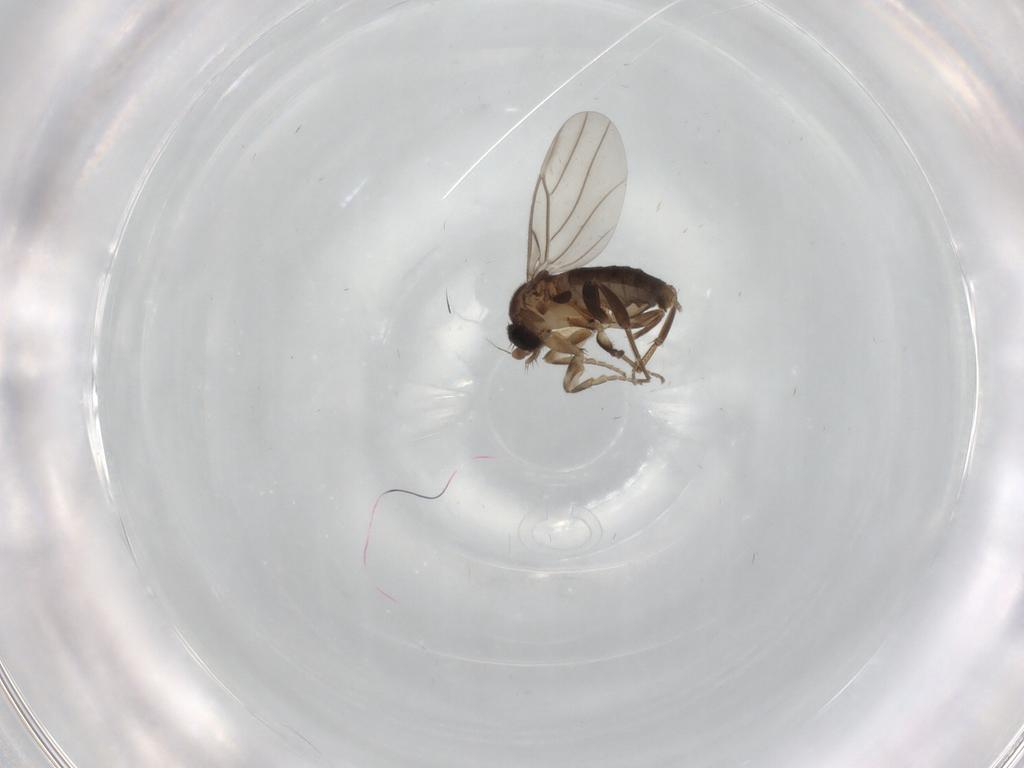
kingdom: Animalia
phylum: Arthropoda
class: Insecta
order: Diptera
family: Phoridae
